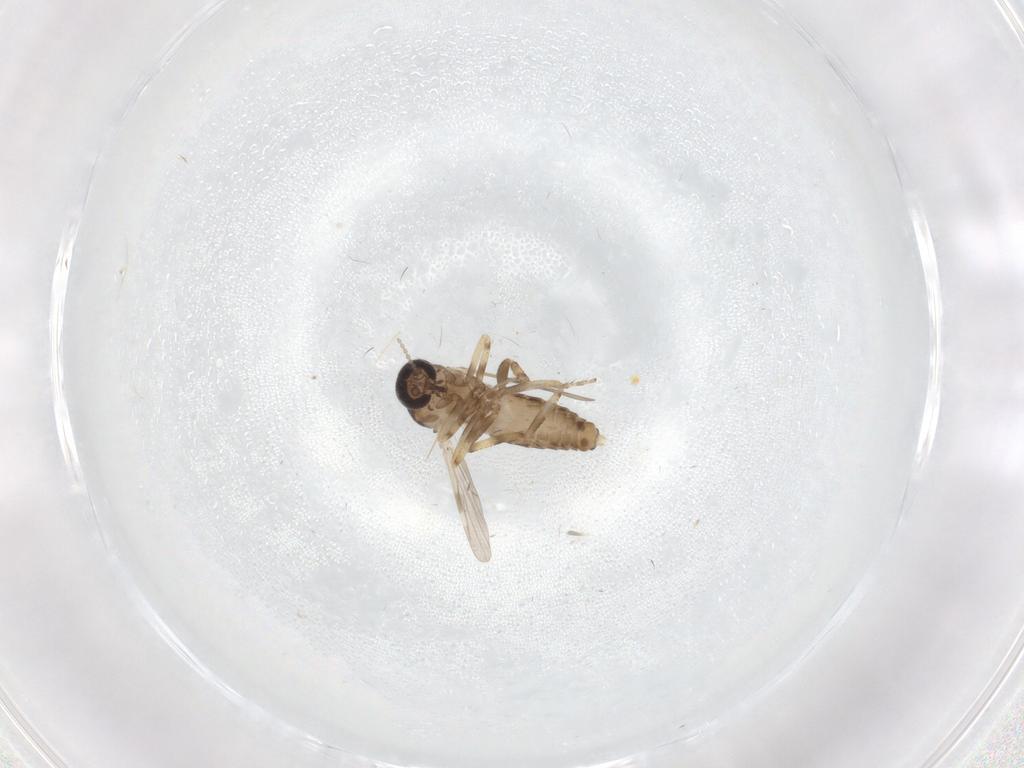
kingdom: Animalia
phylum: Arthropoda
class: Insecta
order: Diptera
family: Ceratopogonidae
